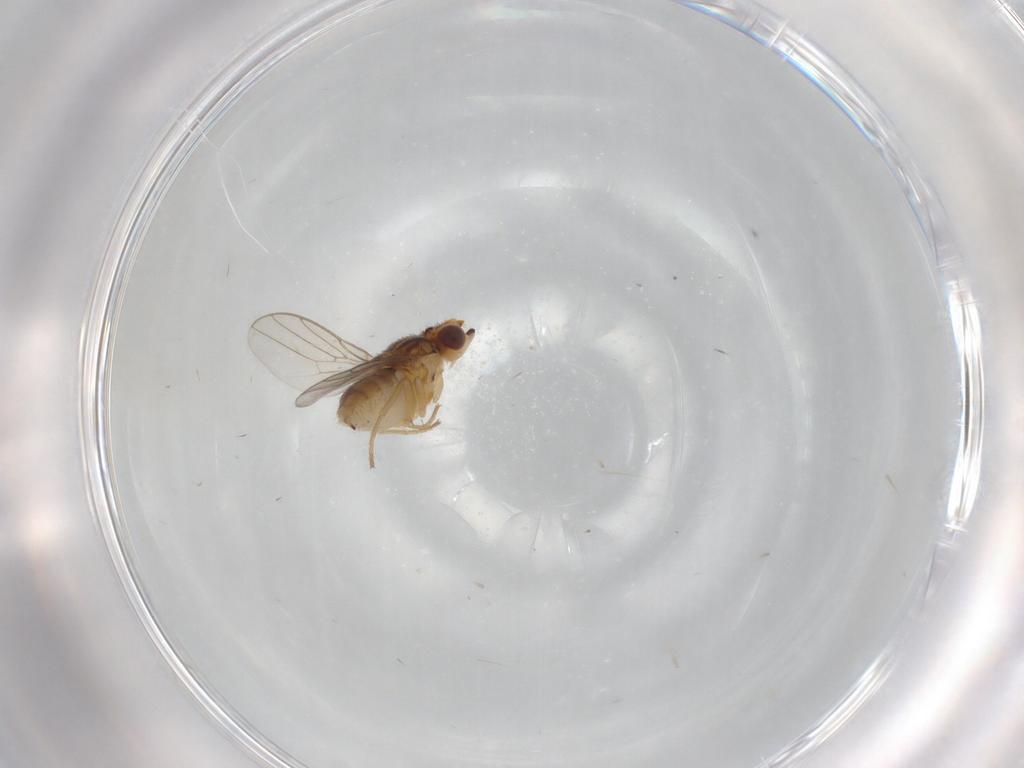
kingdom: Animalia
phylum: Arthropoda
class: Insecta
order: Diptera
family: Chloropidae
